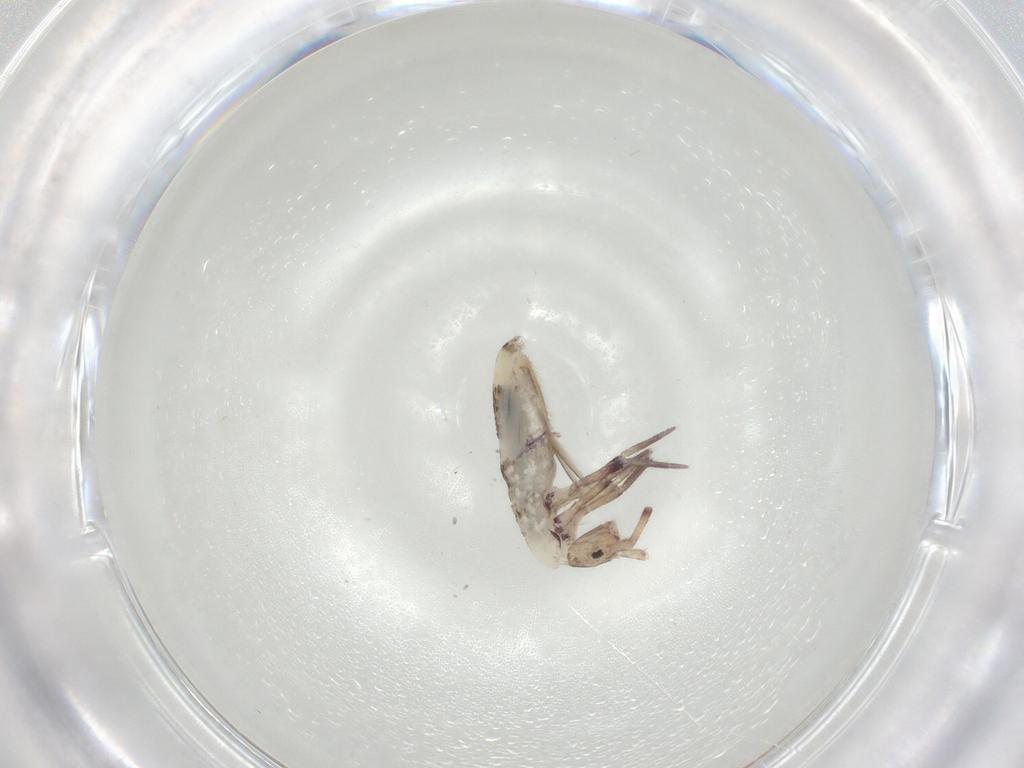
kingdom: Animalia
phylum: Arthropoda
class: Collembola
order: Entomobryomorpha
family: Entomobryidae
